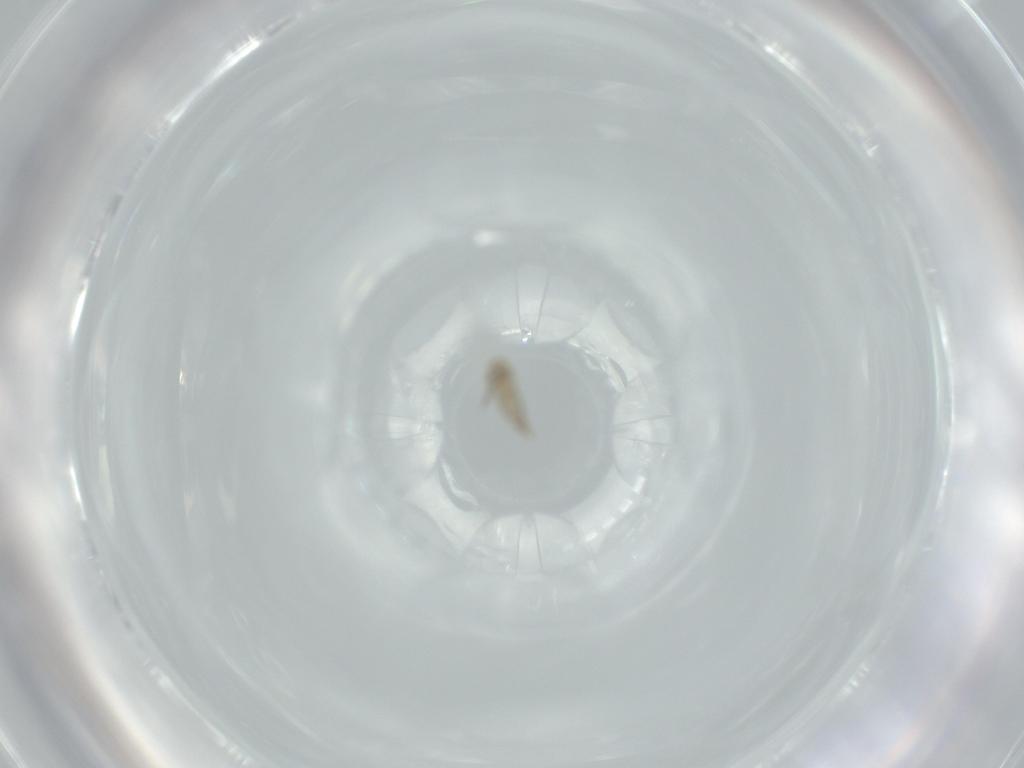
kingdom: Animalia
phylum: Arthropoda
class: Insecta
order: Diptera
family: Cecidomyiidae
